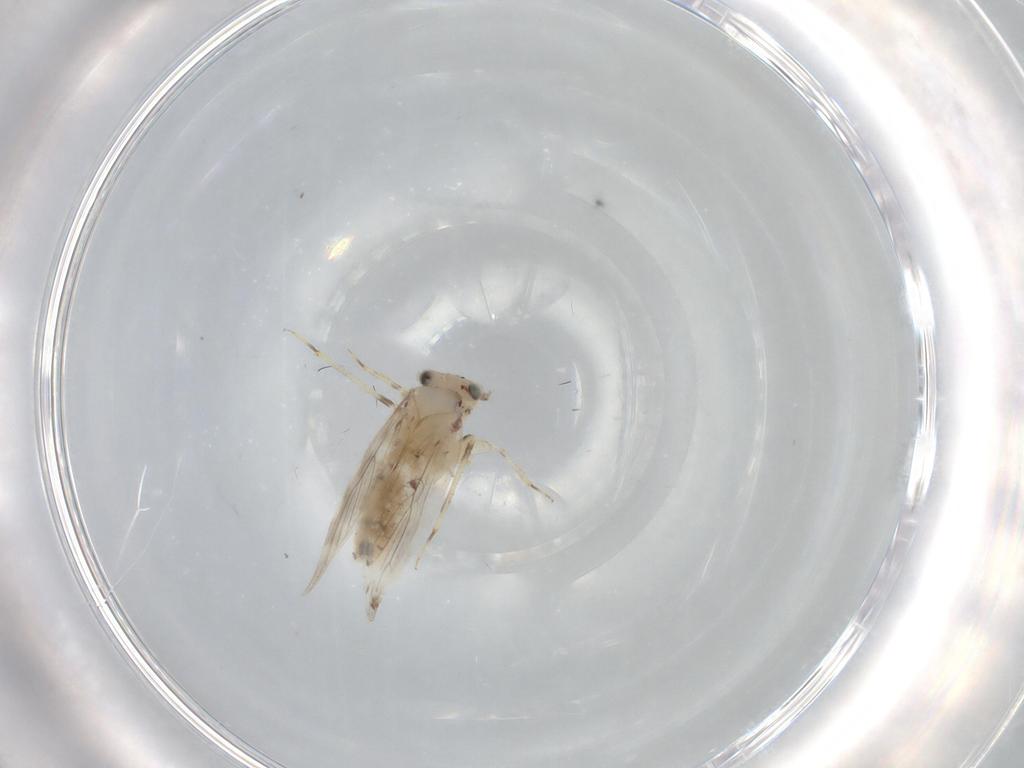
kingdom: Animalia
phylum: Arthropoda
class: Insecta
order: Psocodea
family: Lepidopsocidae
